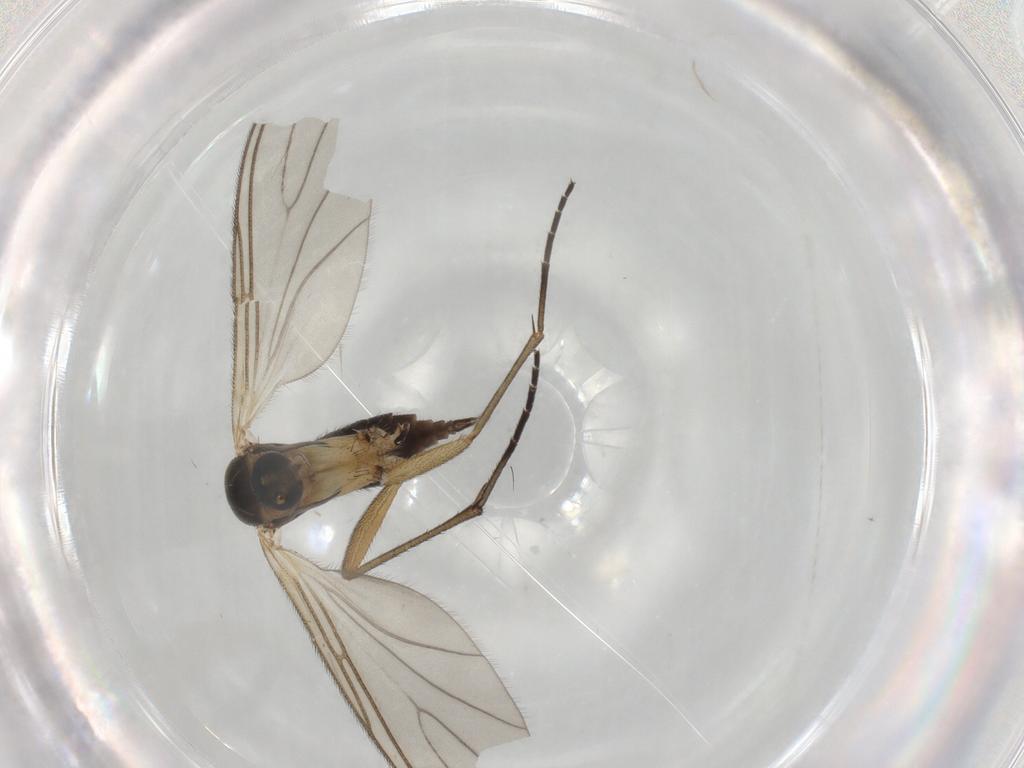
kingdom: Animalia
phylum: Arthropoda
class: Insecta
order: Diptera
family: Sciaridae
